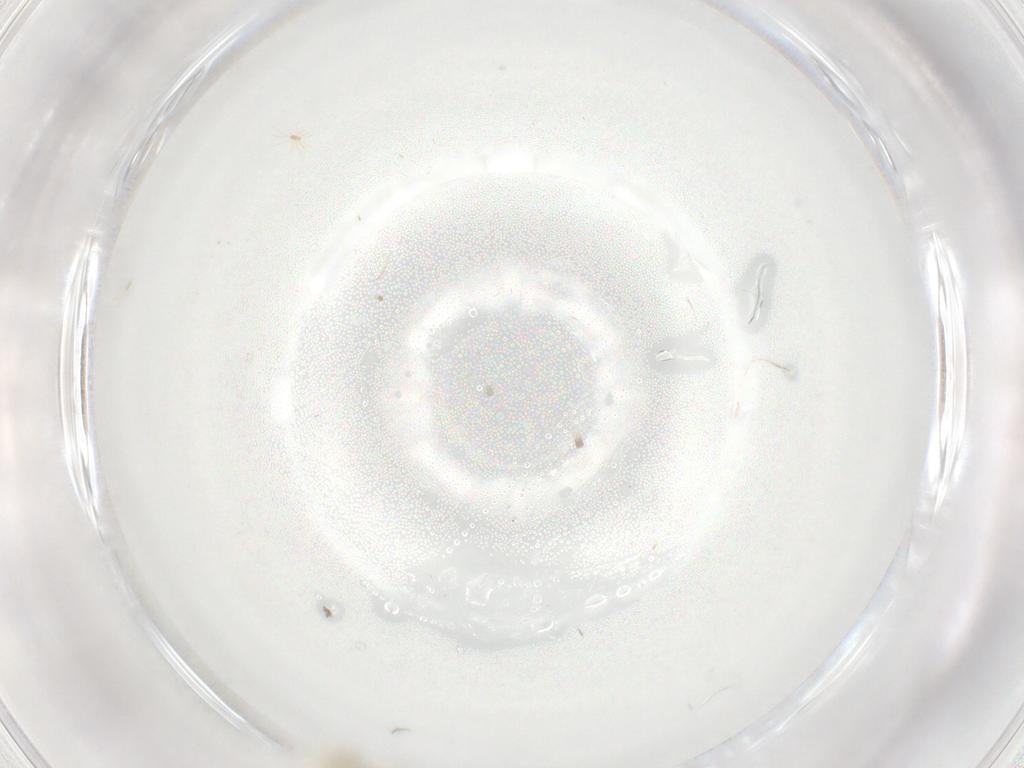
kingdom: Animalia
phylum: Arthropoda
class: Insecta
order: Diptera
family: Cecidomyiidae
